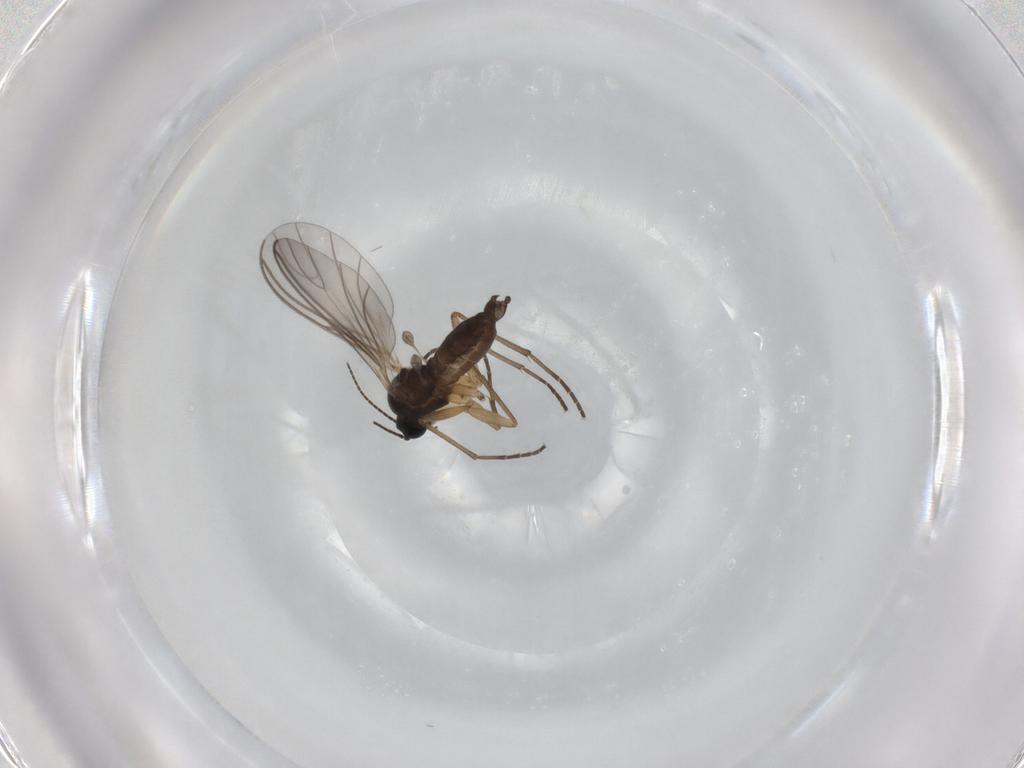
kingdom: Animalia
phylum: Arthropoda
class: Insecta
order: Diptera
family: Sciaridae
